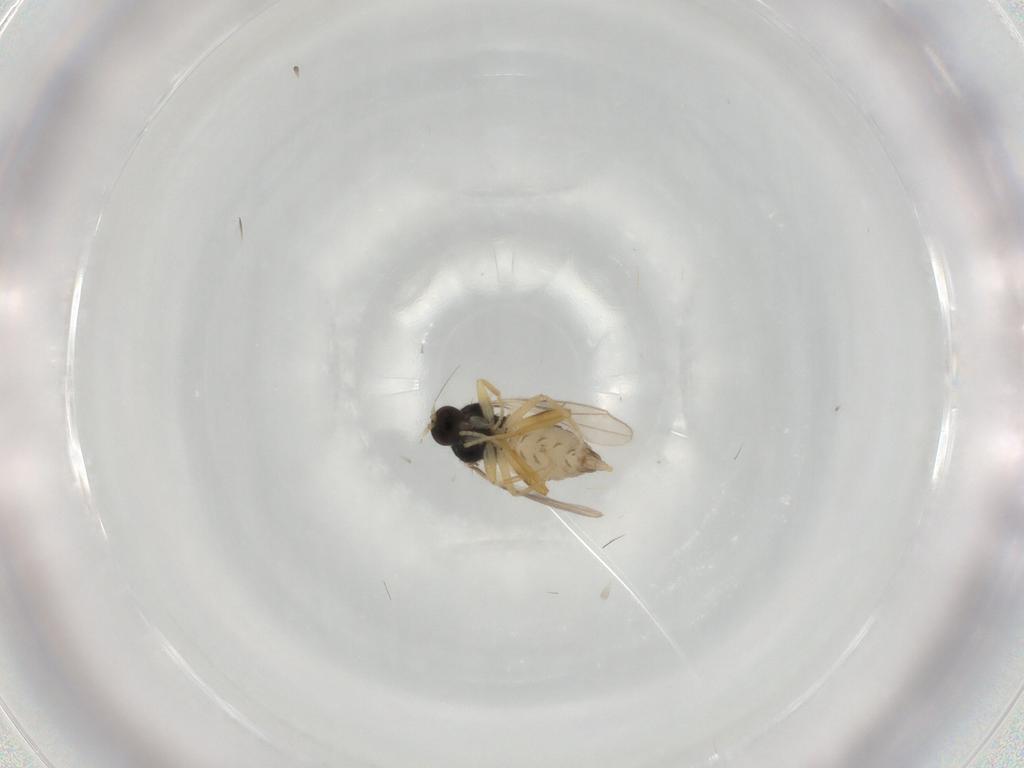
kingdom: Animalia
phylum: Arthropoda
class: Insecta
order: Diptera
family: Hybotidae
